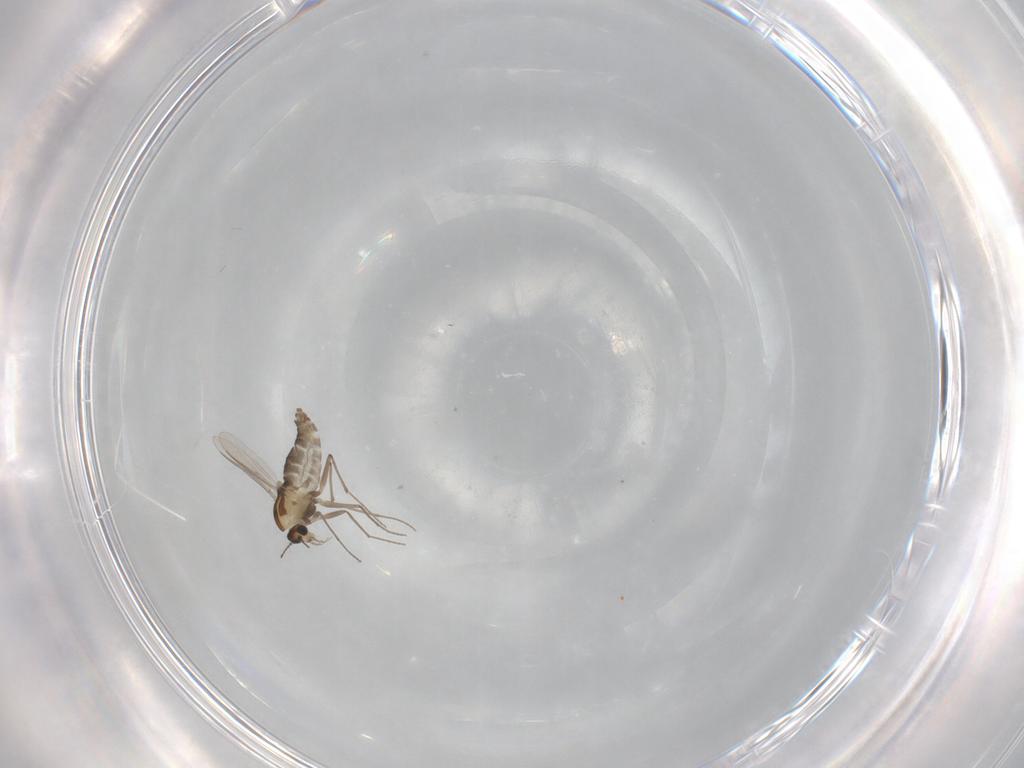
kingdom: Animalia
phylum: Arthropoda
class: Insecta
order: Diptera
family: Chironomidae
